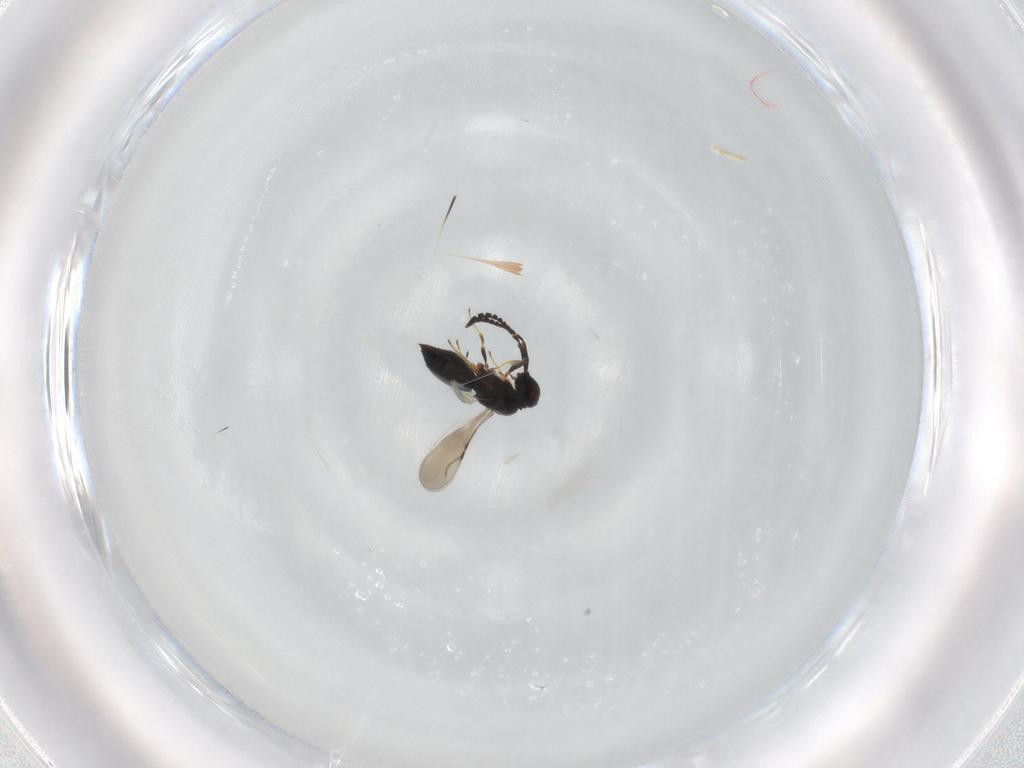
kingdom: Animalia
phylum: Arthropoda
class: Insecta
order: Hymenoptera
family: Ceraphronidae
